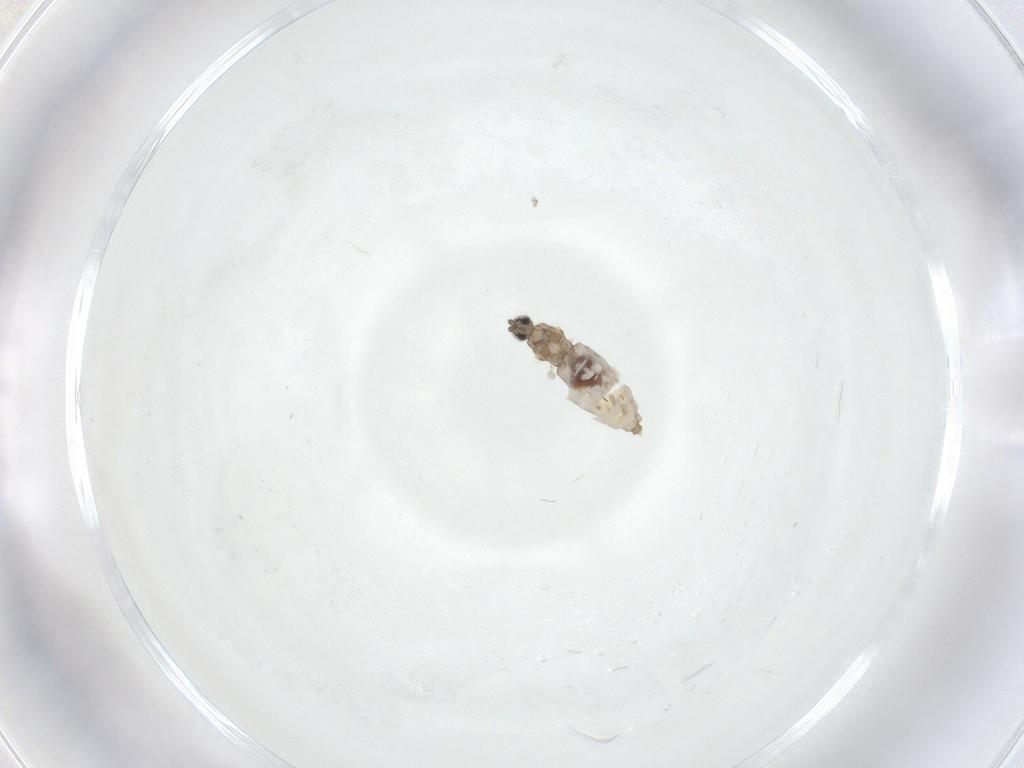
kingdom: Animalia
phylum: Arthropoda
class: Insecta
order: Diptera
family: Cecidomyiidae
